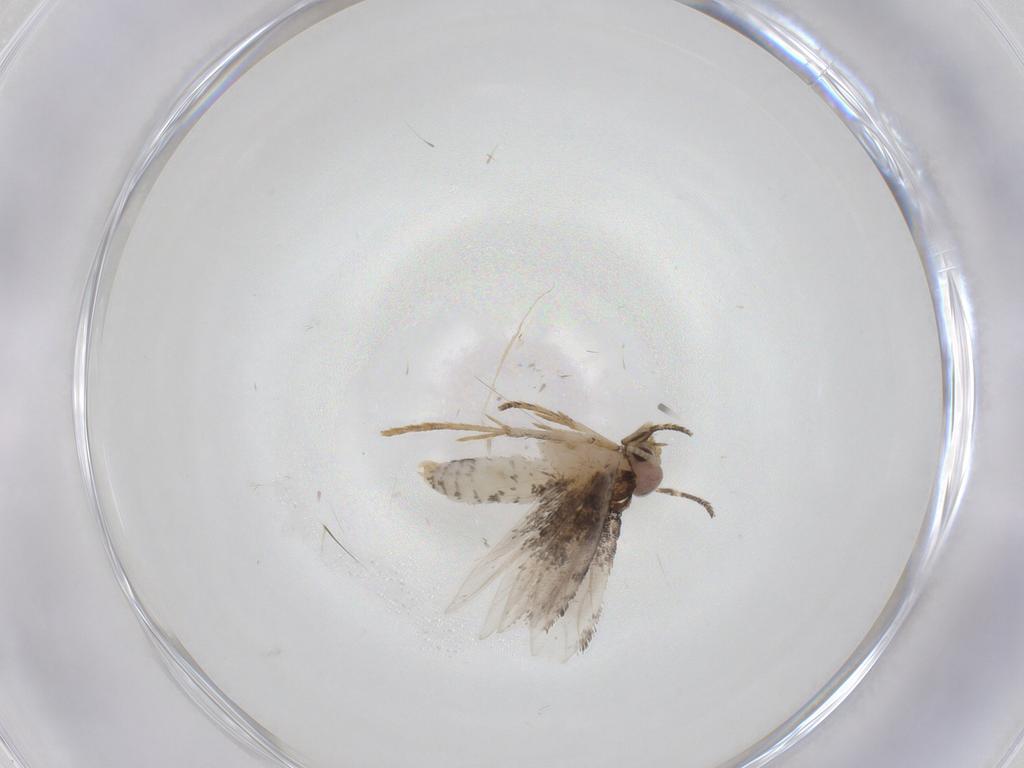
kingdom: Animalia
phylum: Arthropoda
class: Insecta
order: Lepidoptera
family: Tineidae
